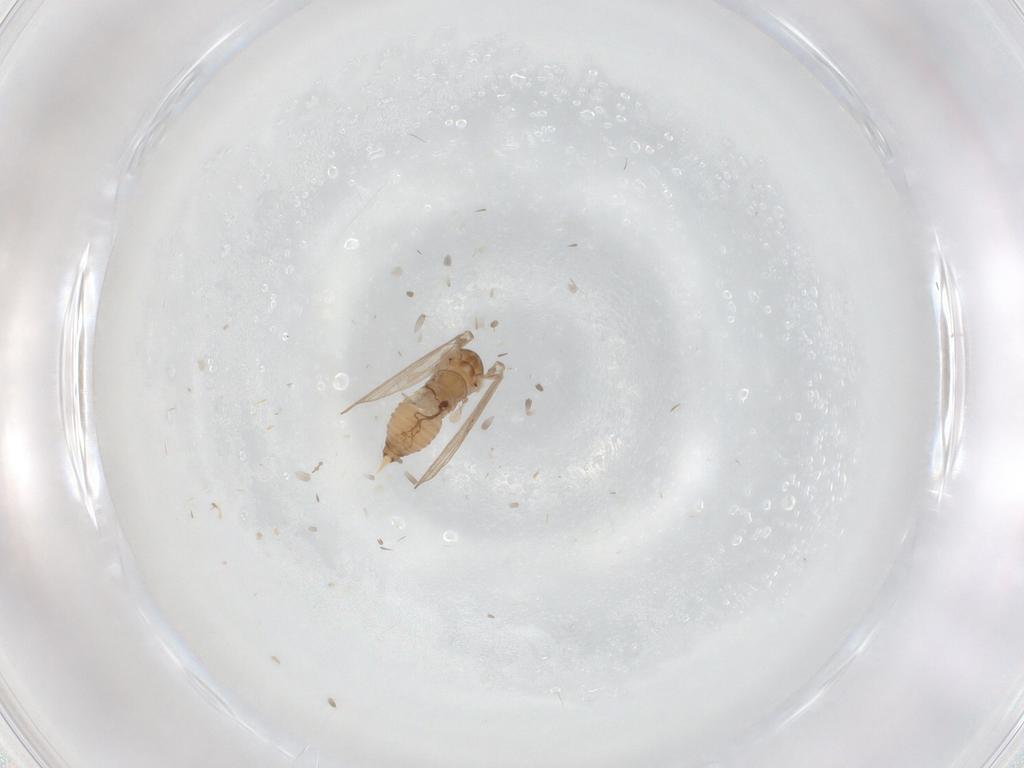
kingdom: Animalia
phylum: Arthropoda
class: Insecta
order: Diptera
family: Psychodidae
